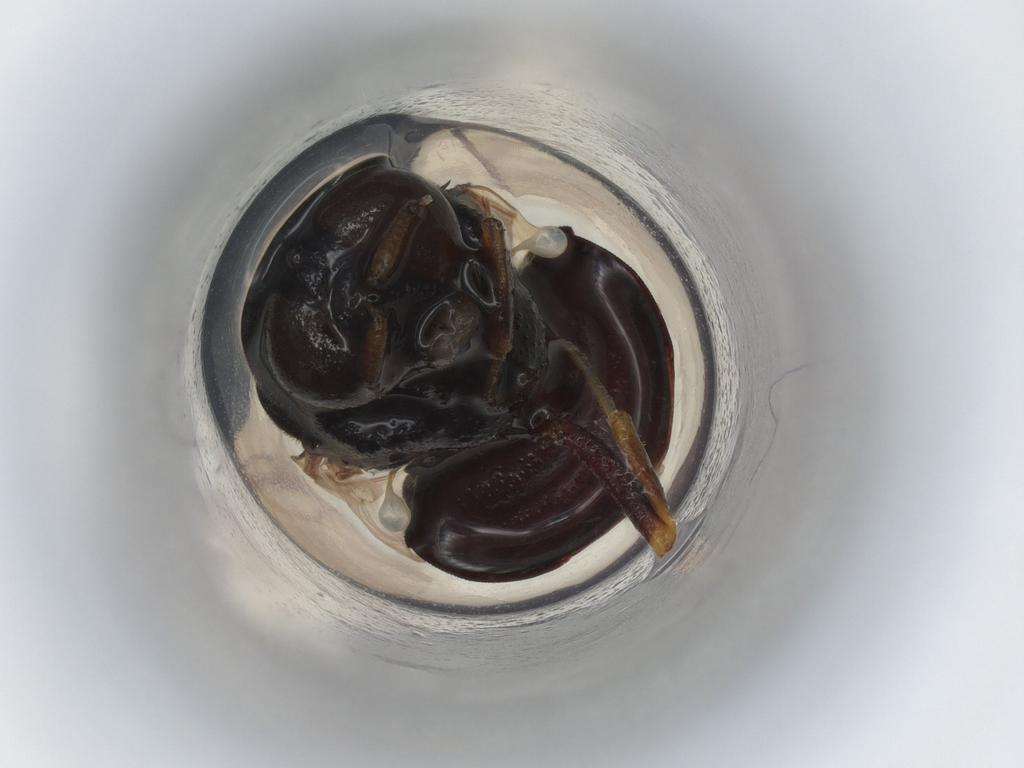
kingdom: Animalia
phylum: Arthropoda
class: Insecta
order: Diptera
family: Stratiomyidae
